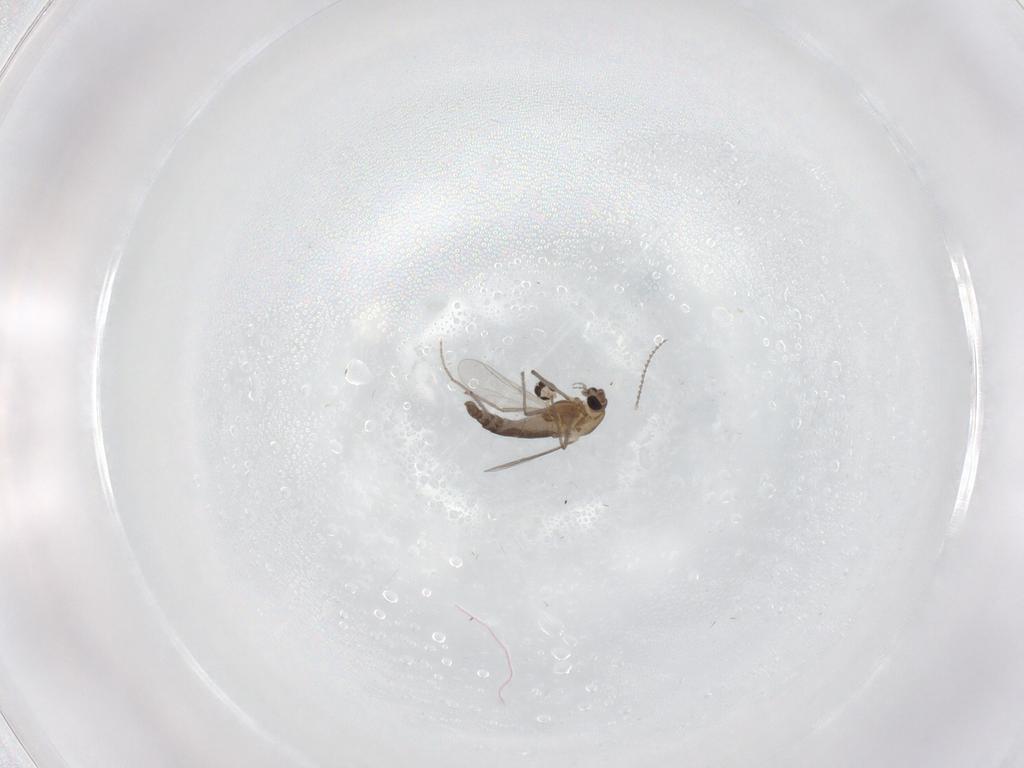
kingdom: Animalia
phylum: Arthropoda
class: Insecta
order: Diptera
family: Chironomidae
